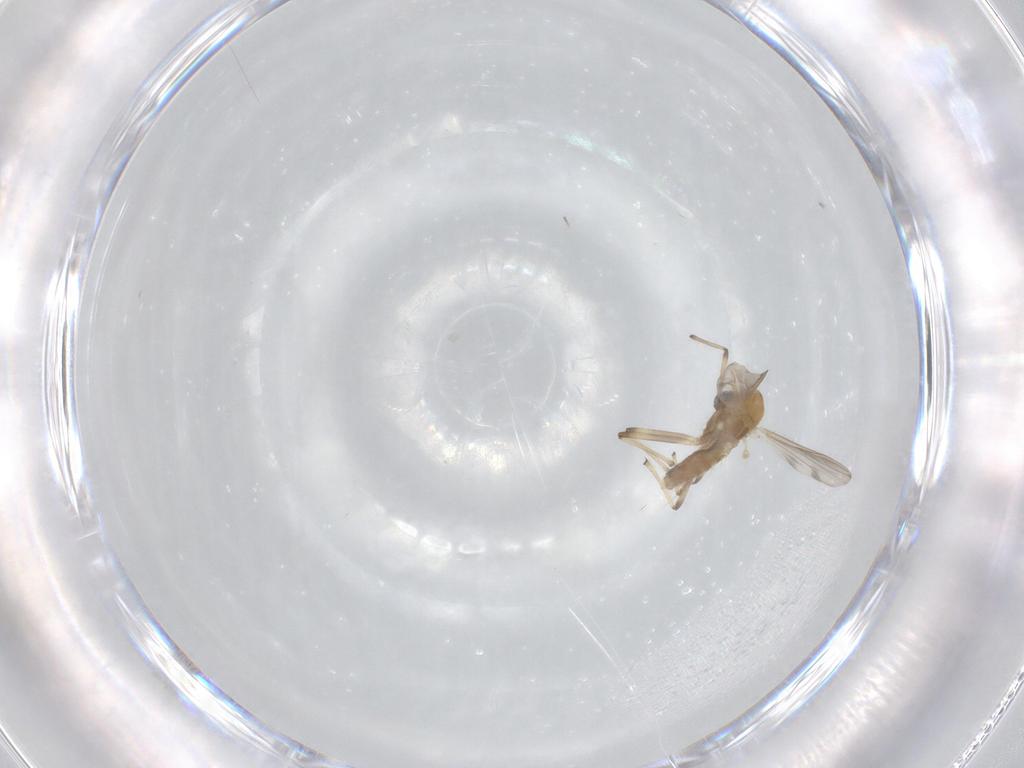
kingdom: Animalia
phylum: Arthropoda
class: Insecta
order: Diptera
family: Chironomidae
